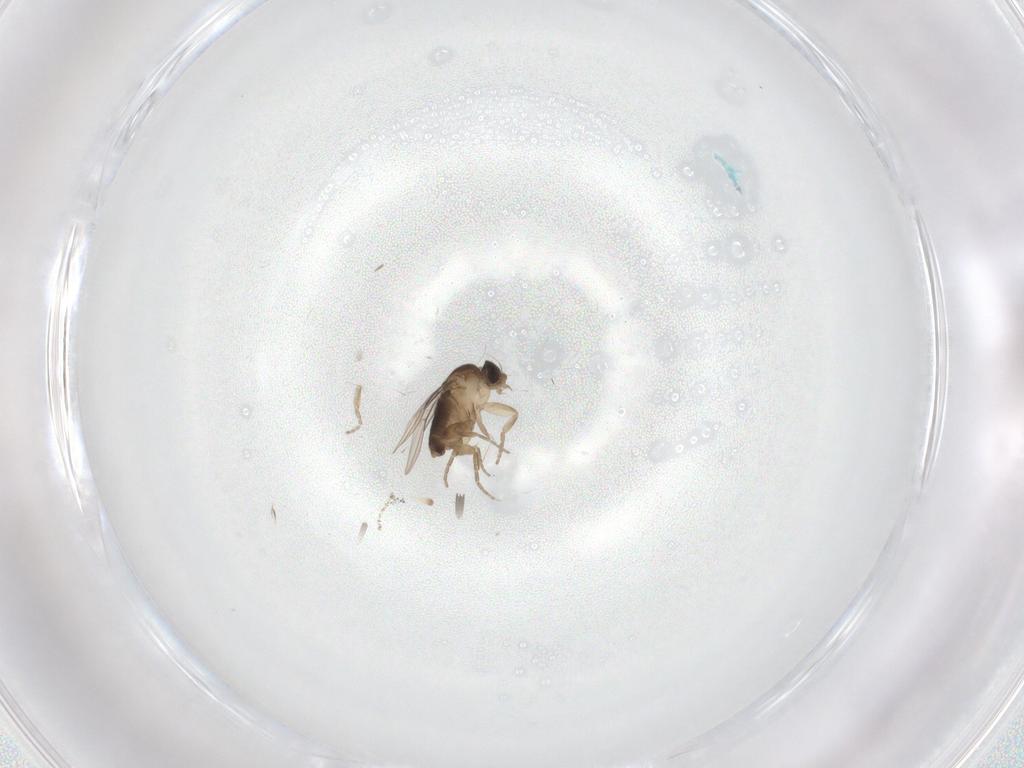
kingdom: Animalia
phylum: Arthropoda
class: Insecta
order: Diptera
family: Phoridae
